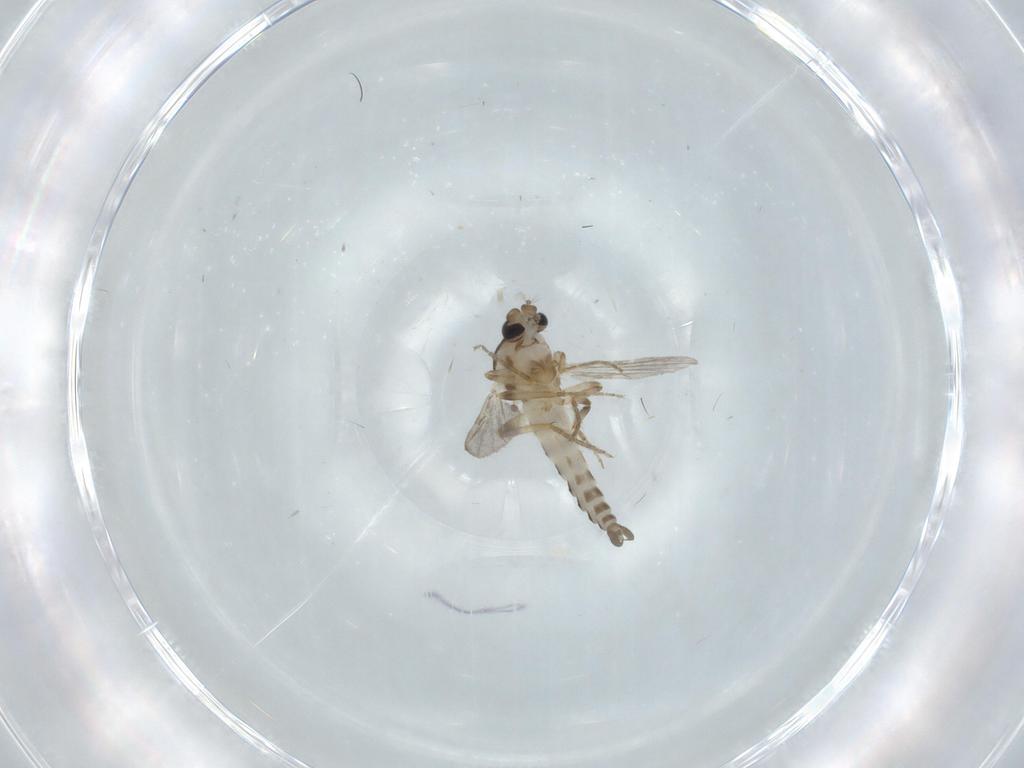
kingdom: Animalia
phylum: Arthropoda
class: Insecta
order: Diptera
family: Ceratopogonidae
